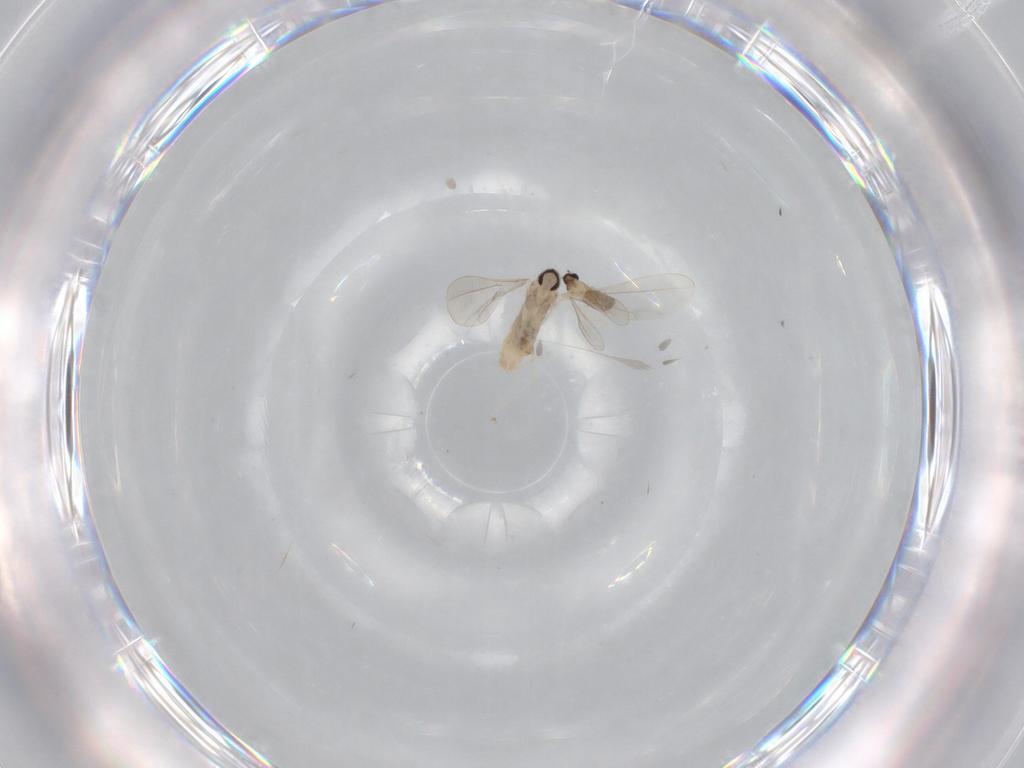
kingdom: Animalia
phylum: Arthropoda
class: Insecta
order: Diptera
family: Cecidomyiidae
